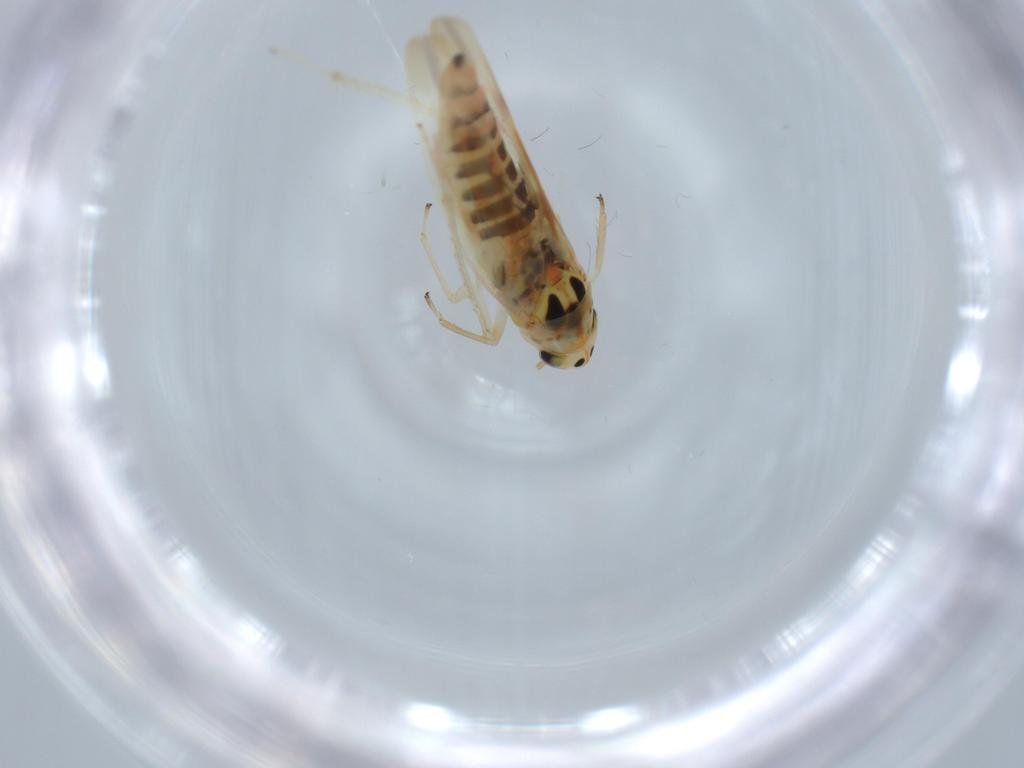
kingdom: Animalia
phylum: Arthropoda
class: Insecta
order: Hemiptera
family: Cicadellidae
